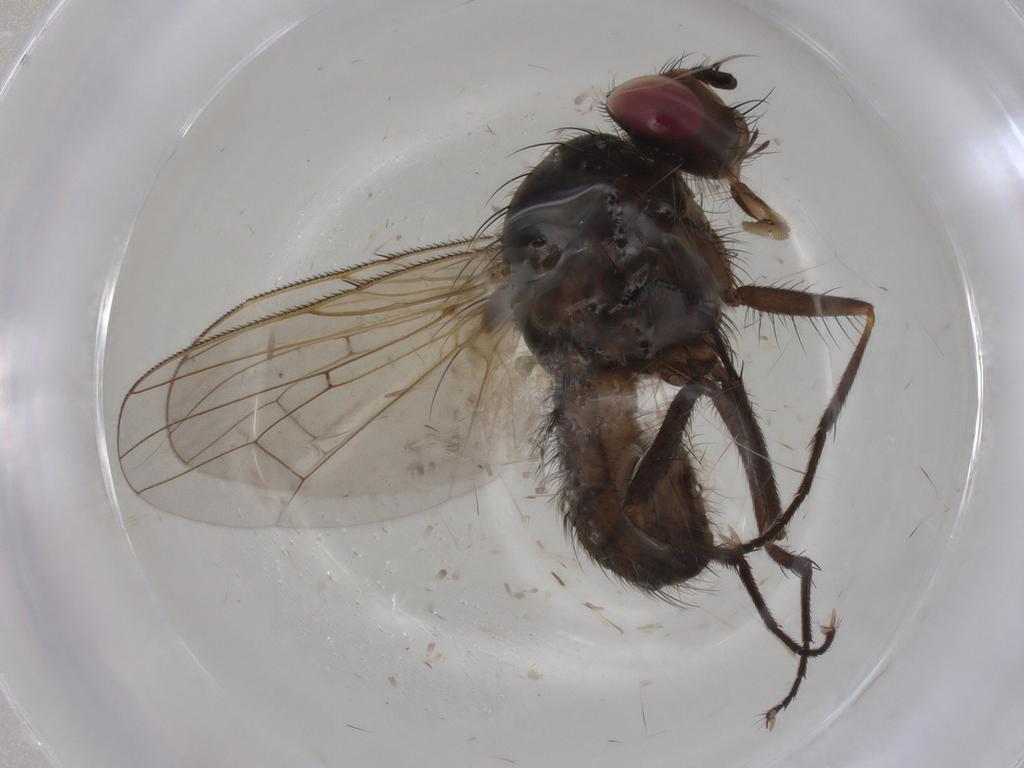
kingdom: Animalia
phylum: Arthropoda
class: Insecta
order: Diptera
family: Anthomyiidae
